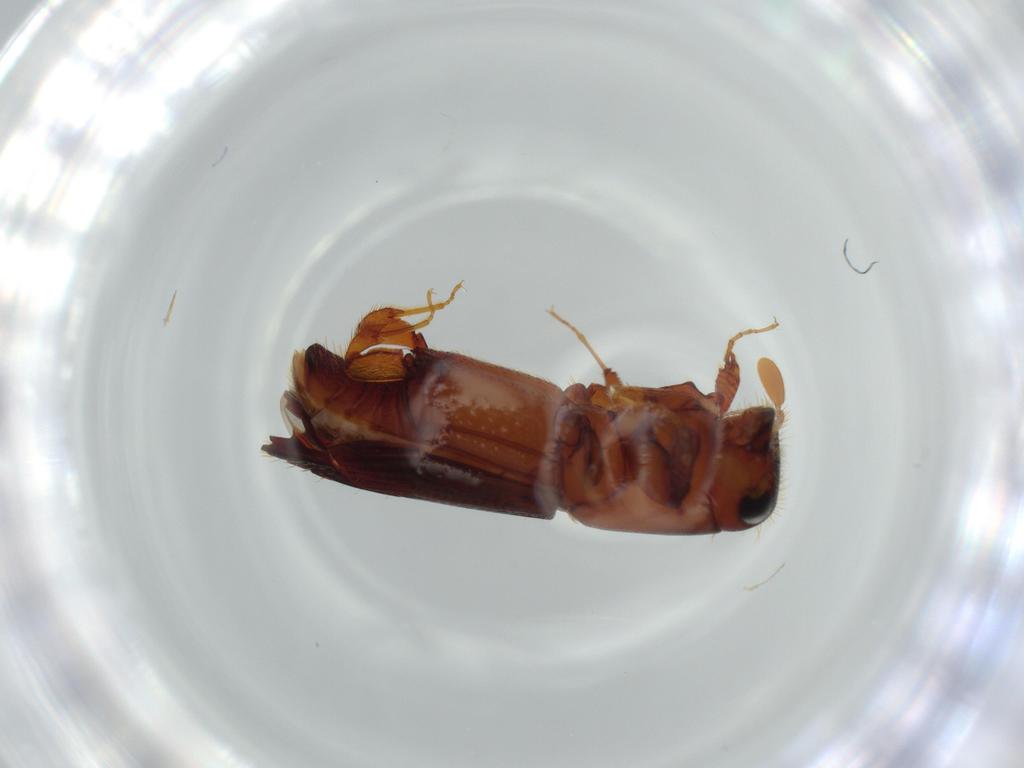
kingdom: Animalia
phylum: Arthropoda
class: Insecta
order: Coleoptera
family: Curculionidae
